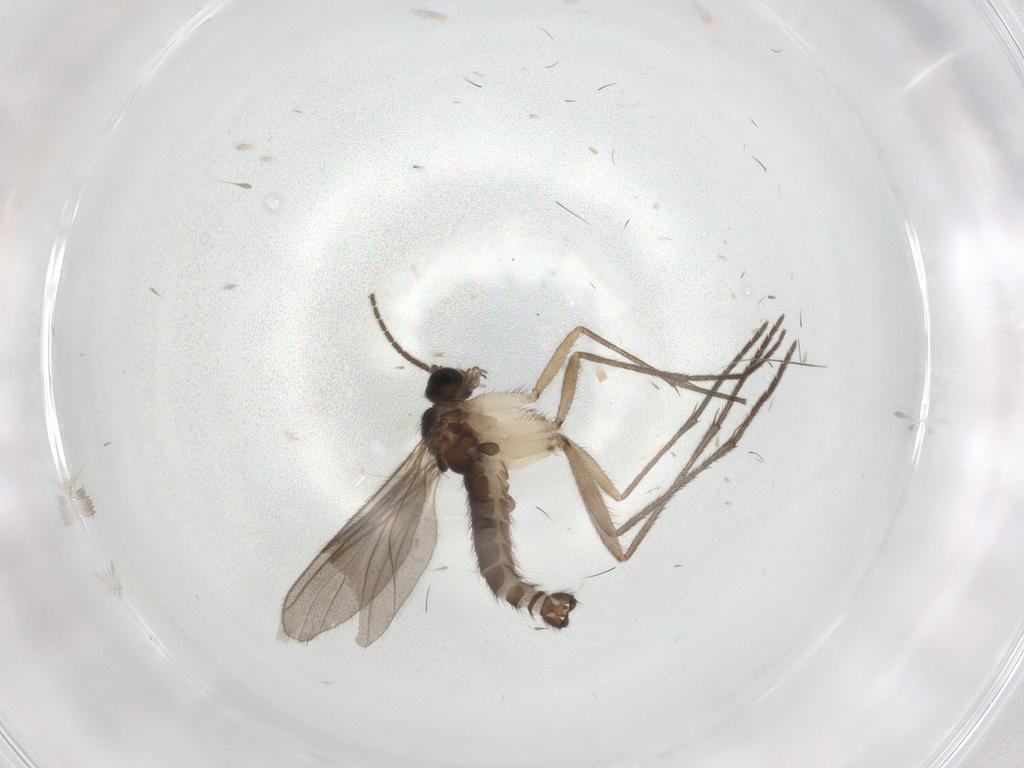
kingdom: Animalia
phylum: Arthropoda
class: Insecta
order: Diptera
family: Sciaridae
